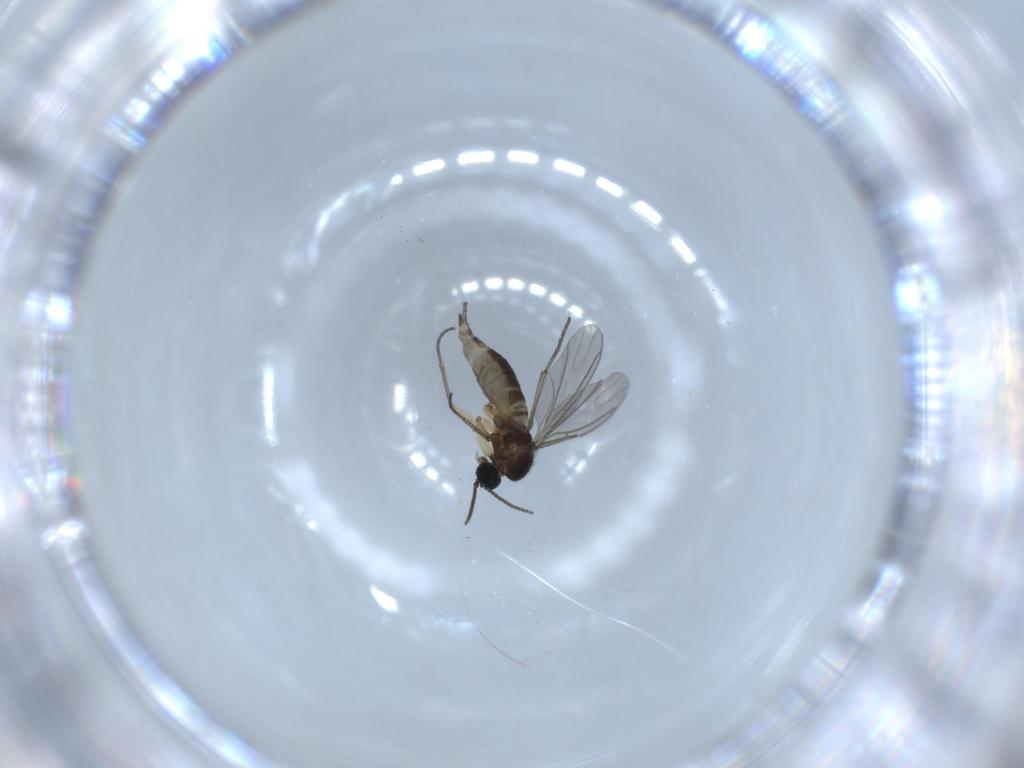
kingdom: Animalia
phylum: Arthropoda
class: Insecta
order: Diptera
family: Sciaridae
